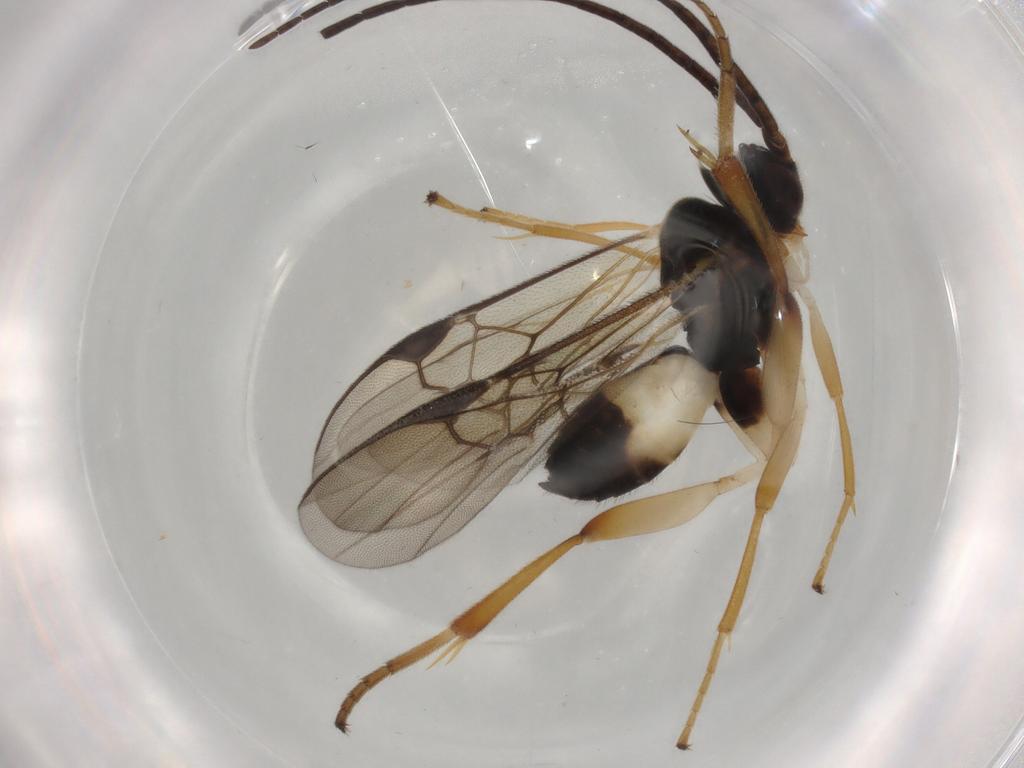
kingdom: Animalia
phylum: Arthropoda
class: Insecta
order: Hymenoptera
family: Braconidae
